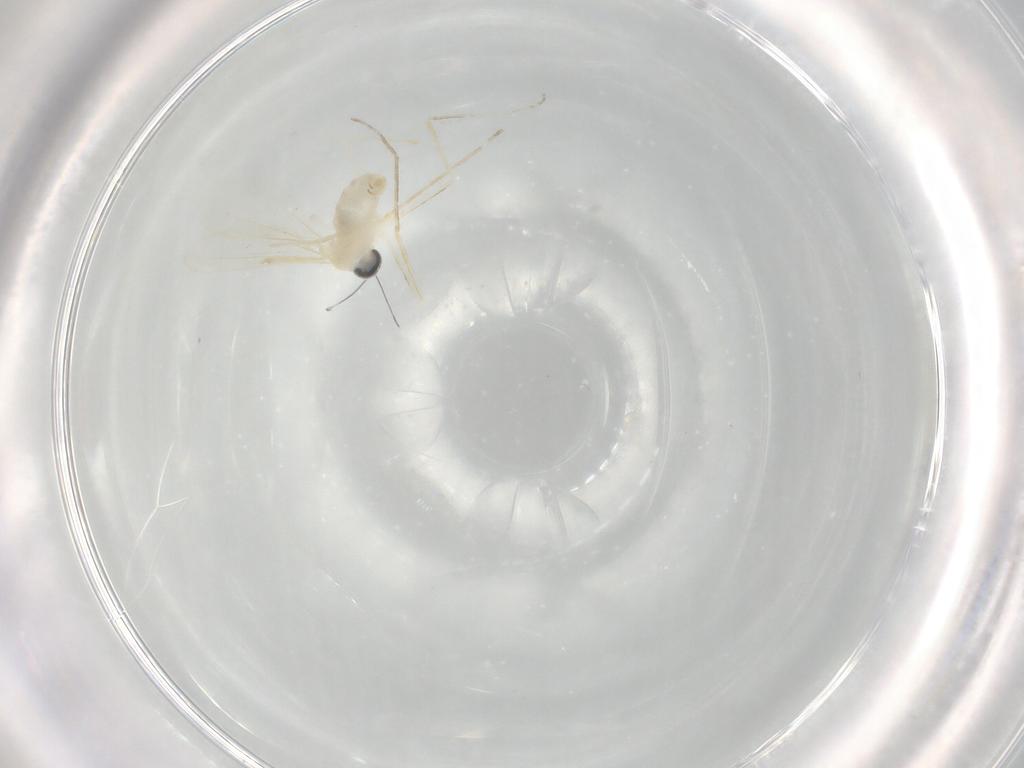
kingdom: Animalia
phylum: Arthropoda
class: Insecta
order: Diptera
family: Cecidomyiidae
